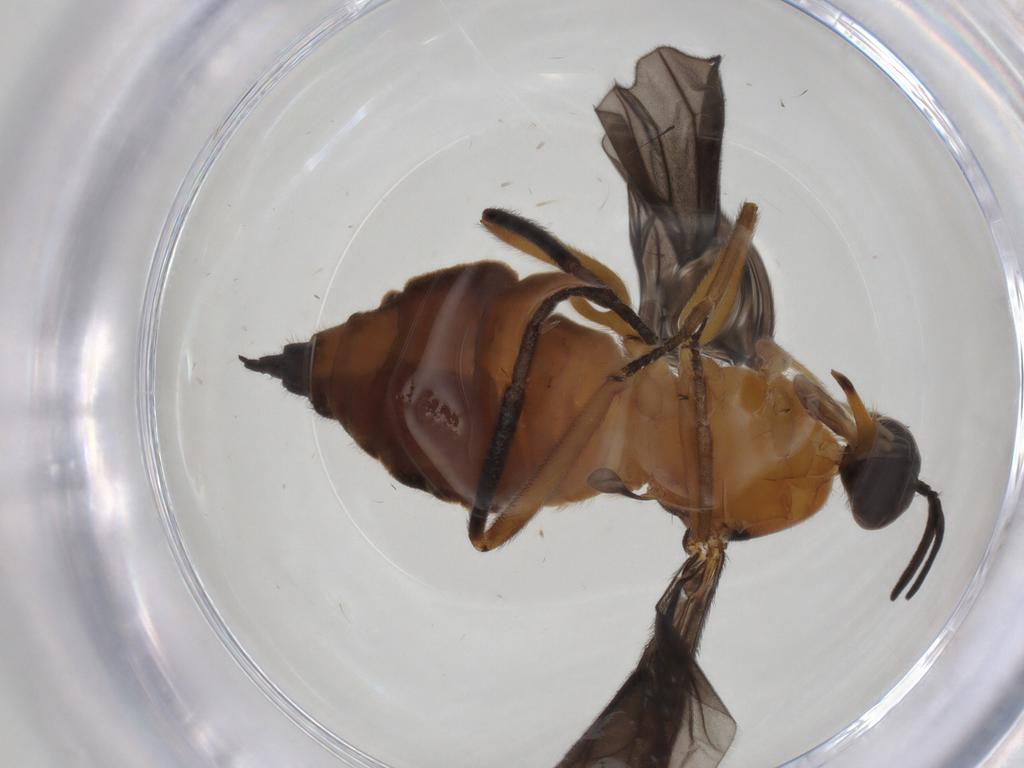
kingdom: Animalia
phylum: Arthropoda
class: Insecta
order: Diptera
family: Empididae
